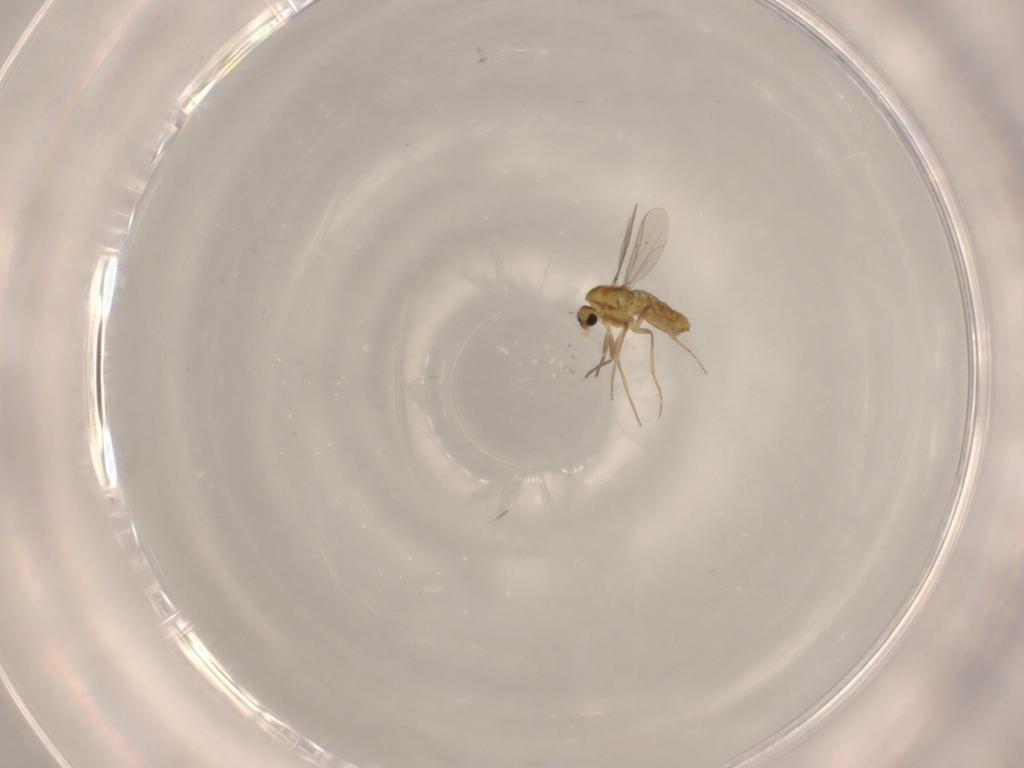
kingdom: Animalia
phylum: Arthropoda
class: Insecta
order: Diptera
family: Chironomidae
